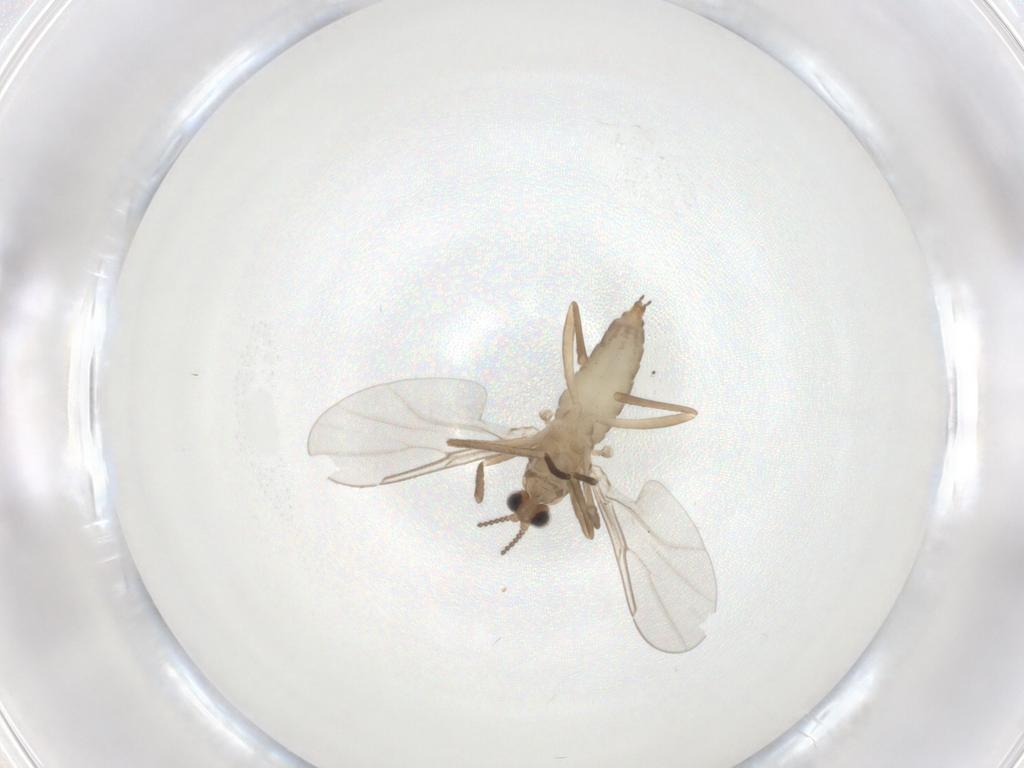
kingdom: Animalia
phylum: Arthropoda
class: Insecta
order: Diptera
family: Cecidomyiidae
